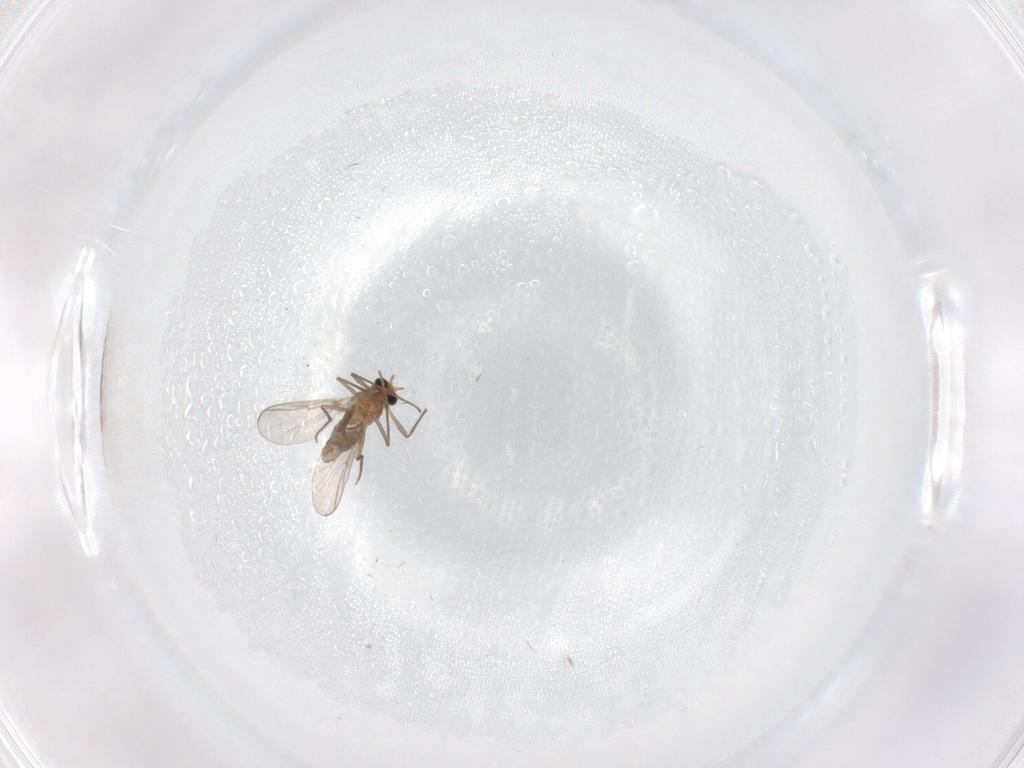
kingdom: Animalia
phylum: Arthropoda
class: Insecta
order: Diptera
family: Chironomidae
